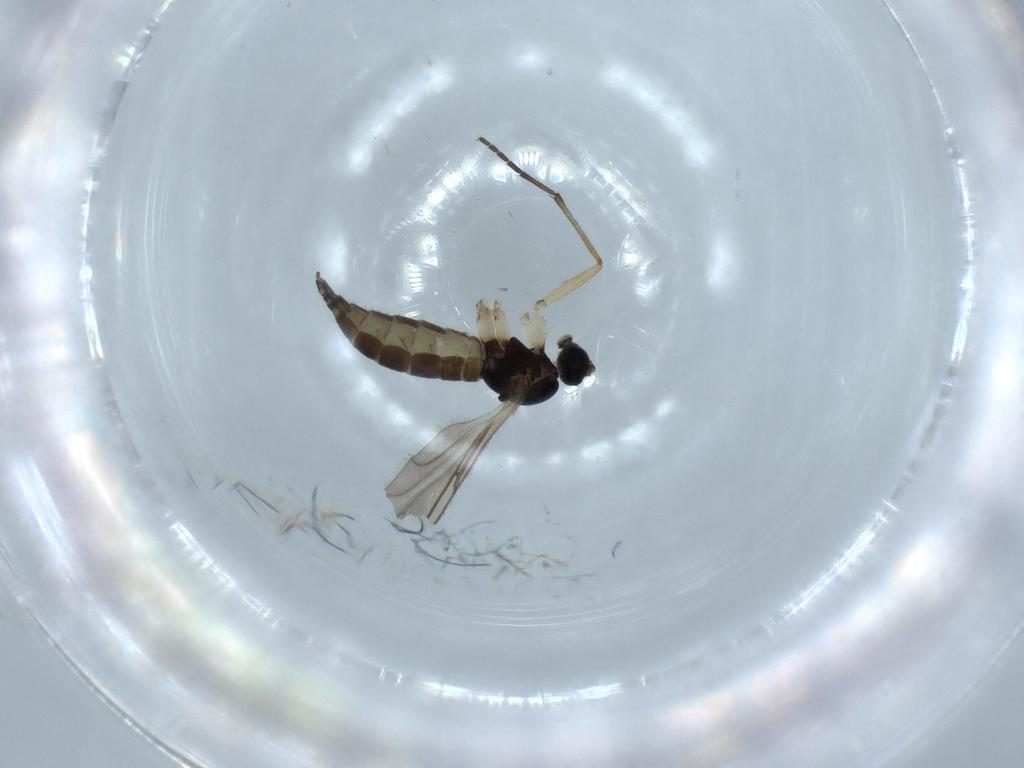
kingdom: Animalia
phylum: Arthropoda
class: Insecta
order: Diptera
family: Sciaridae
